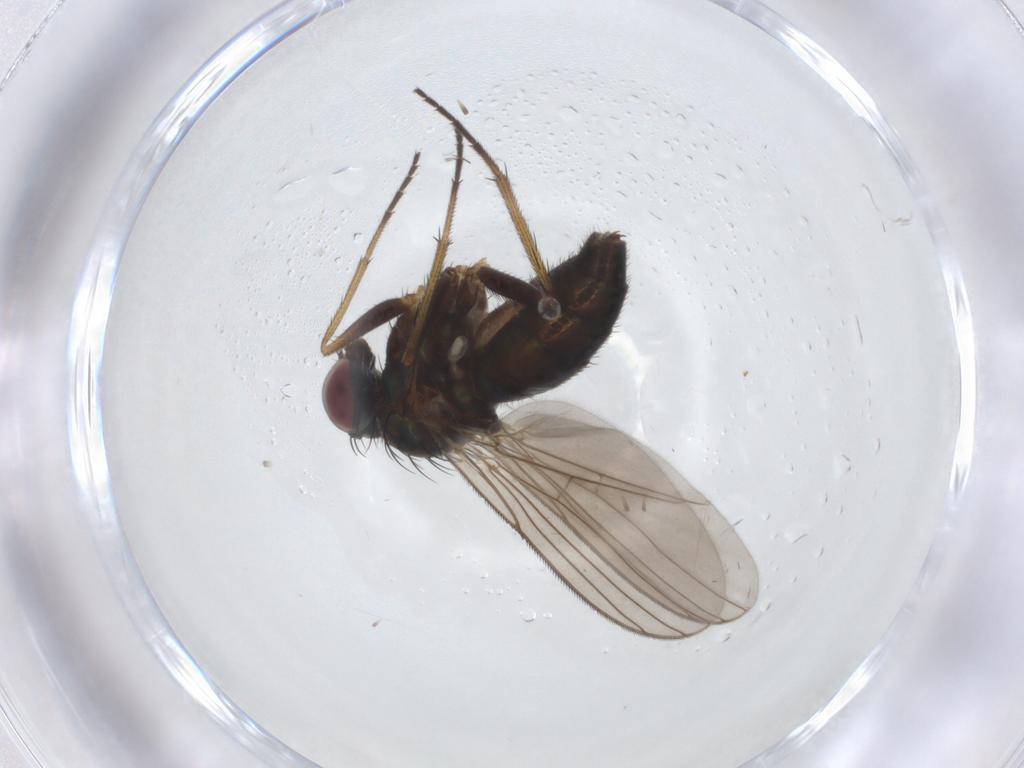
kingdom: Animalia
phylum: Arthropoda
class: Insecta
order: Diptera
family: Dolichopodidae
